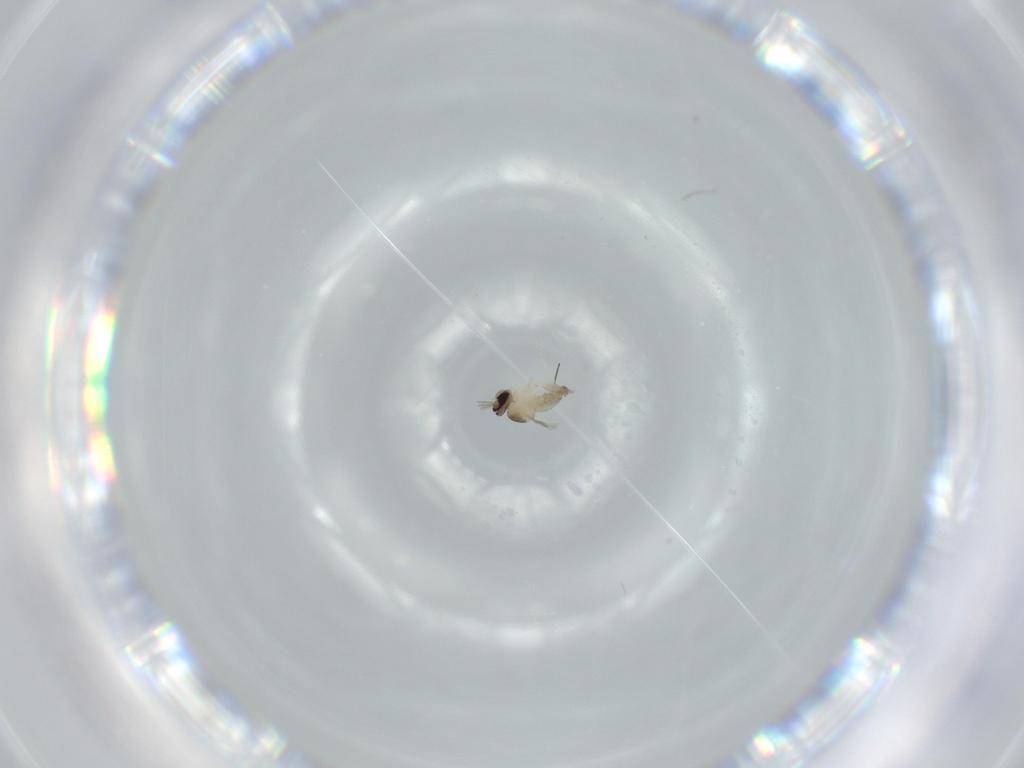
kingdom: Animalia
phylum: Arthropoda
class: Insecta
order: Diptera
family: Cecidomyiidae
